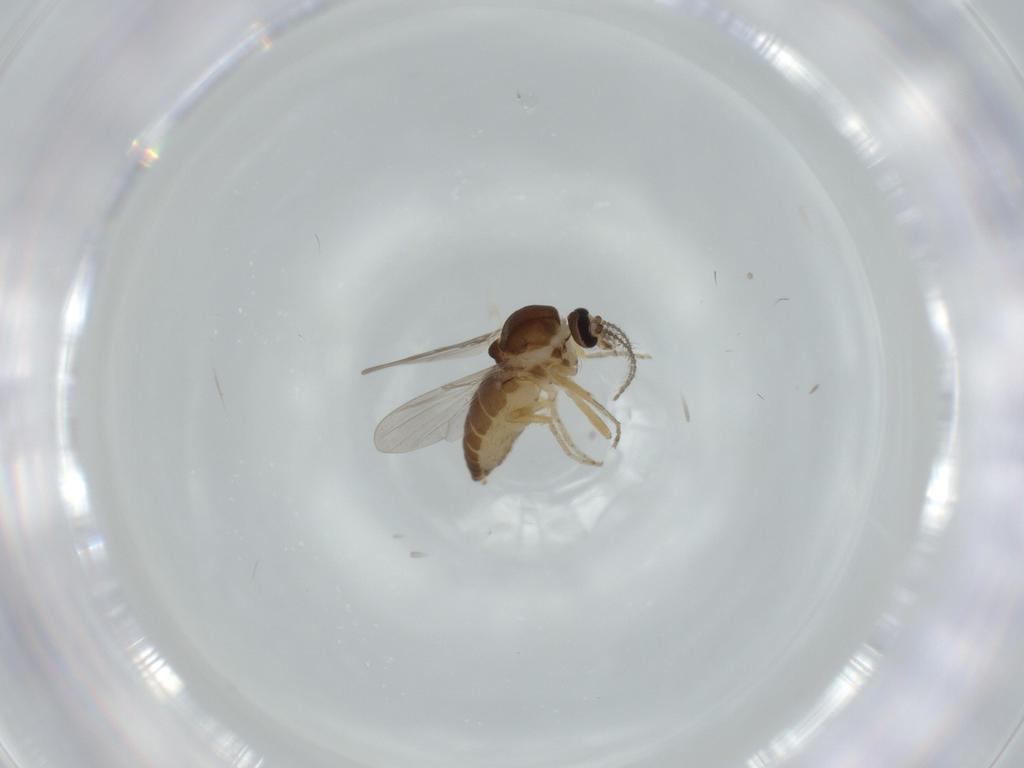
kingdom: Animalia
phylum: Arthropoda
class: Insecta
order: Diptera
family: Ceratopogonidae
